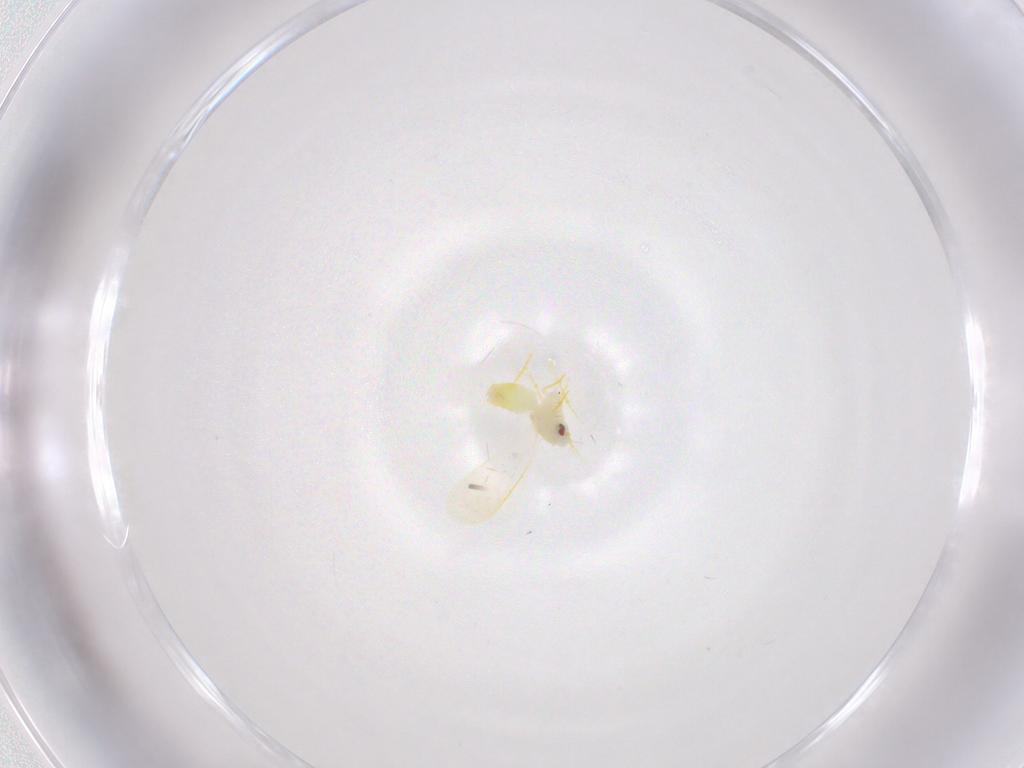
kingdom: Animalia
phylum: Arthropoda
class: Insecta
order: Hemiptera
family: Aleyrodidae
